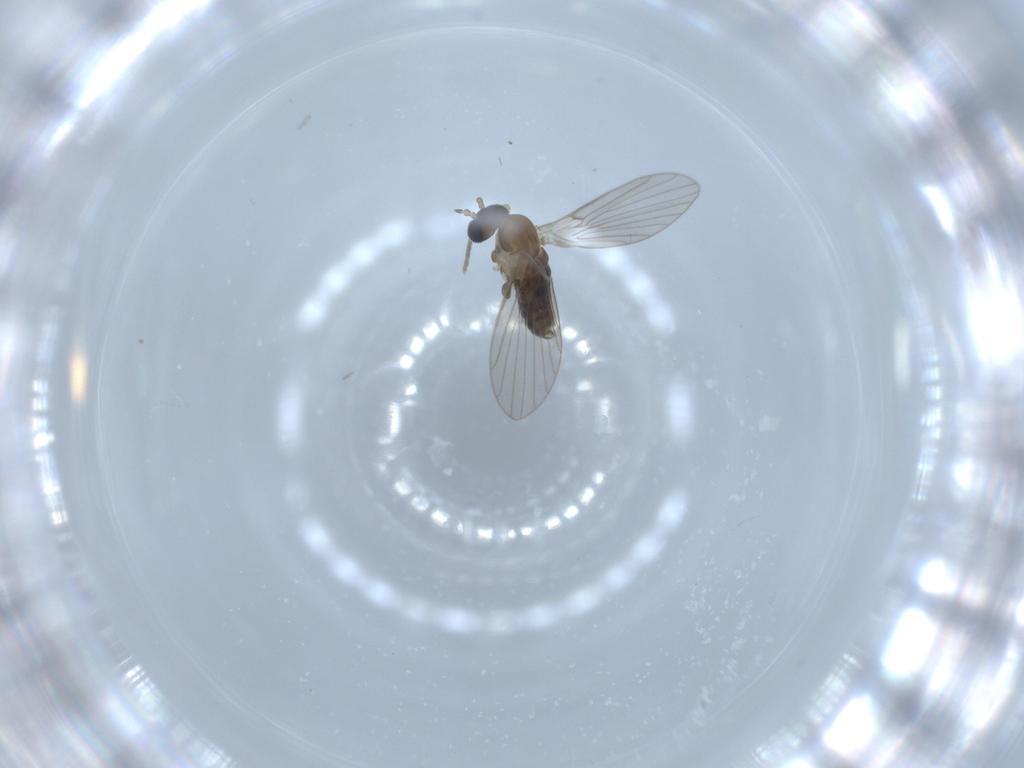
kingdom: Animalia
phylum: Arthropoda
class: Insecta
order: Diptera
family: Psychodidae
